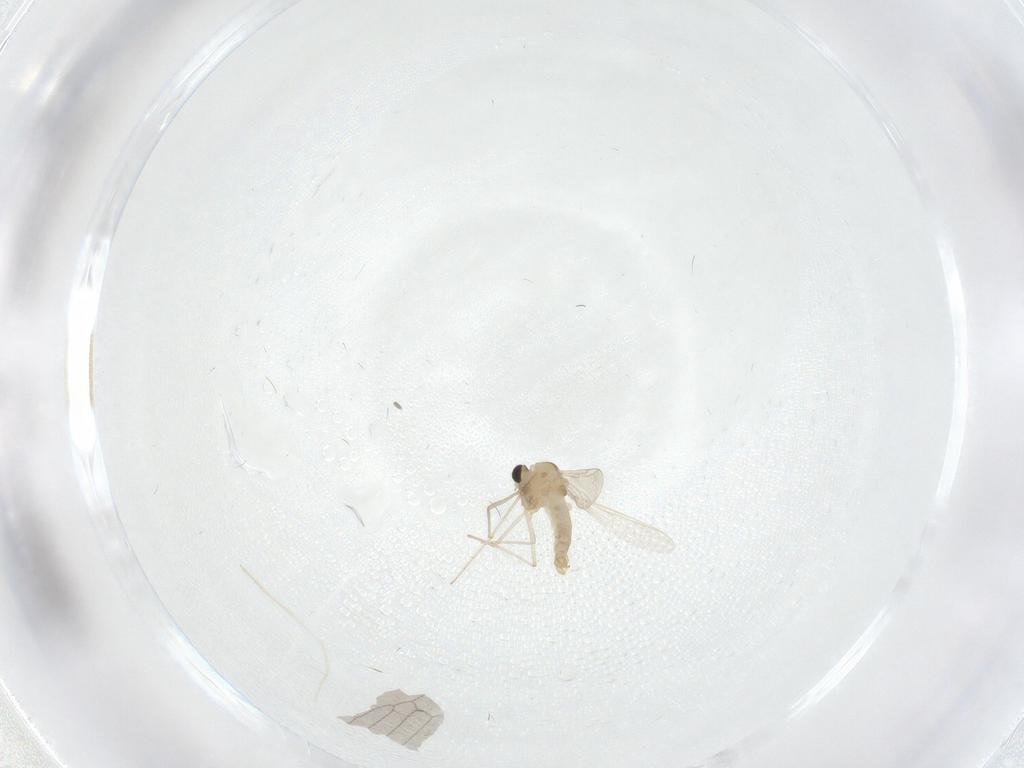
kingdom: Animalia
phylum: Arthropoda
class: Insecta
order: Diptera
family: Chironomidae
